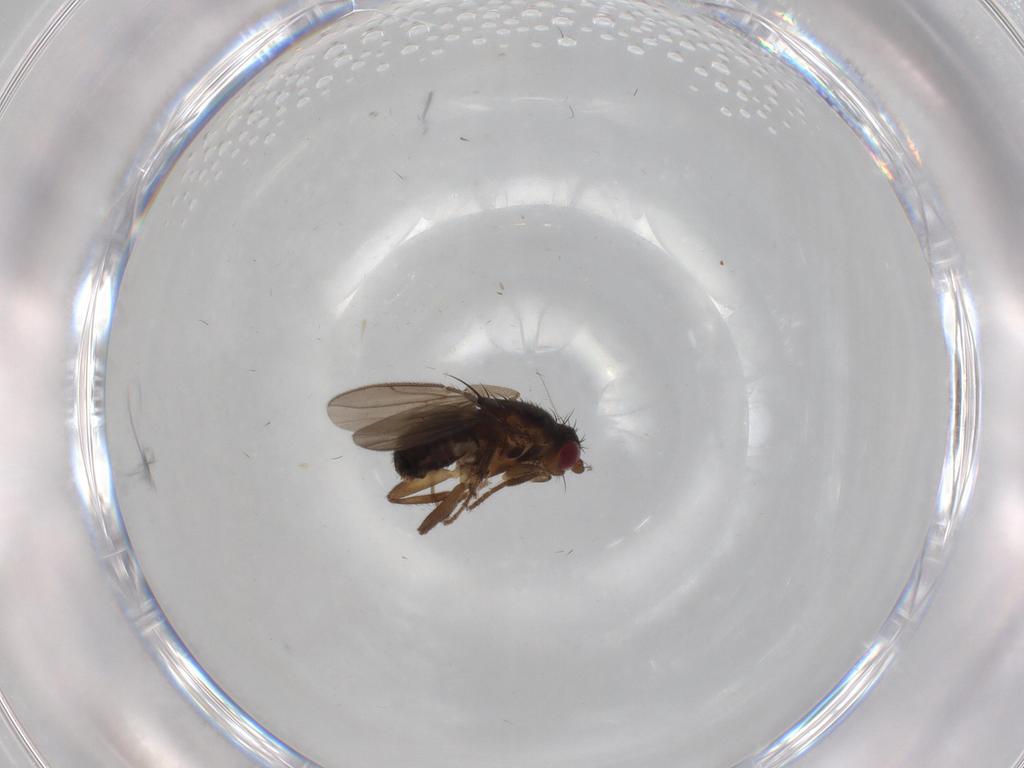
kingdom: Animalia
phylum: Arthropoda
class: Insecta
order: Diptera
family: Sphaeroceridae
